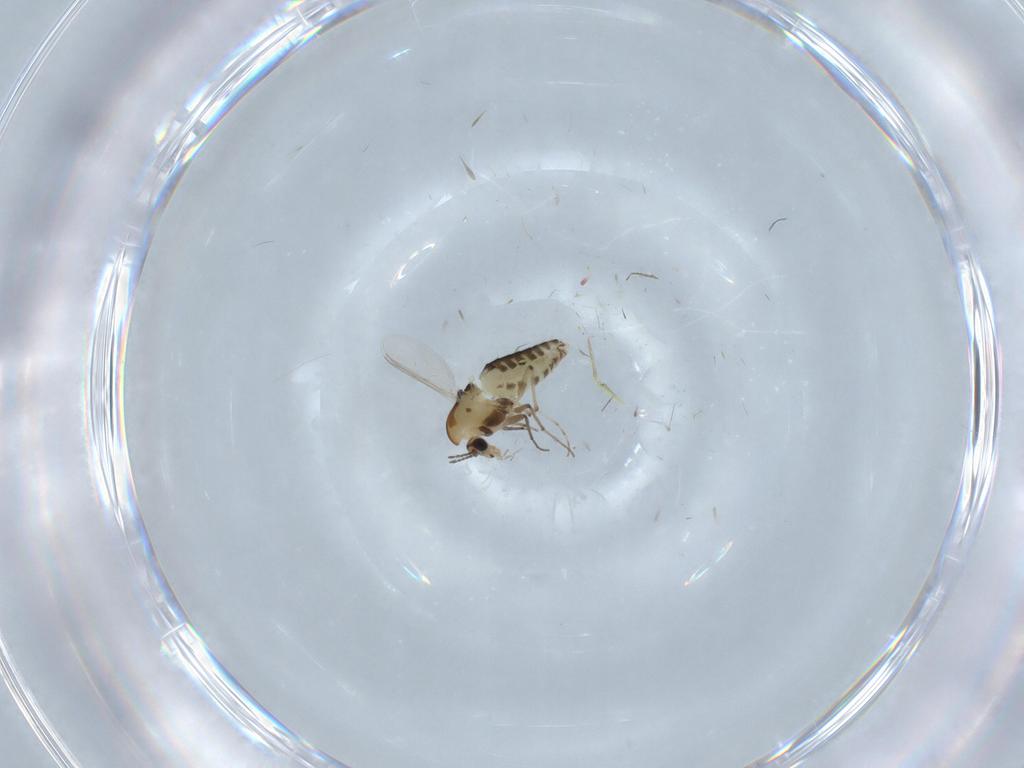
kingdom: Animalia
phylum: Arthropoda
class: Insecta
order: Diptera
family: Chironomidae
